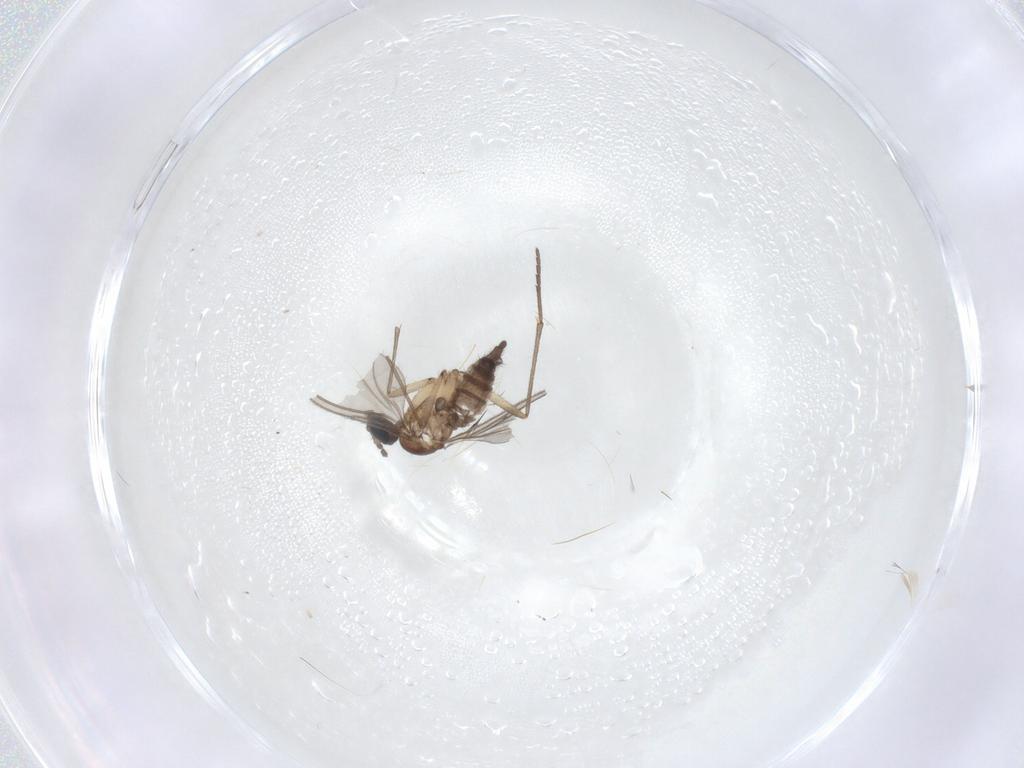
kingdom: Animalia
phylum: Arthropoda
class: Insecta
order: Diptera
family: Sciaridae
